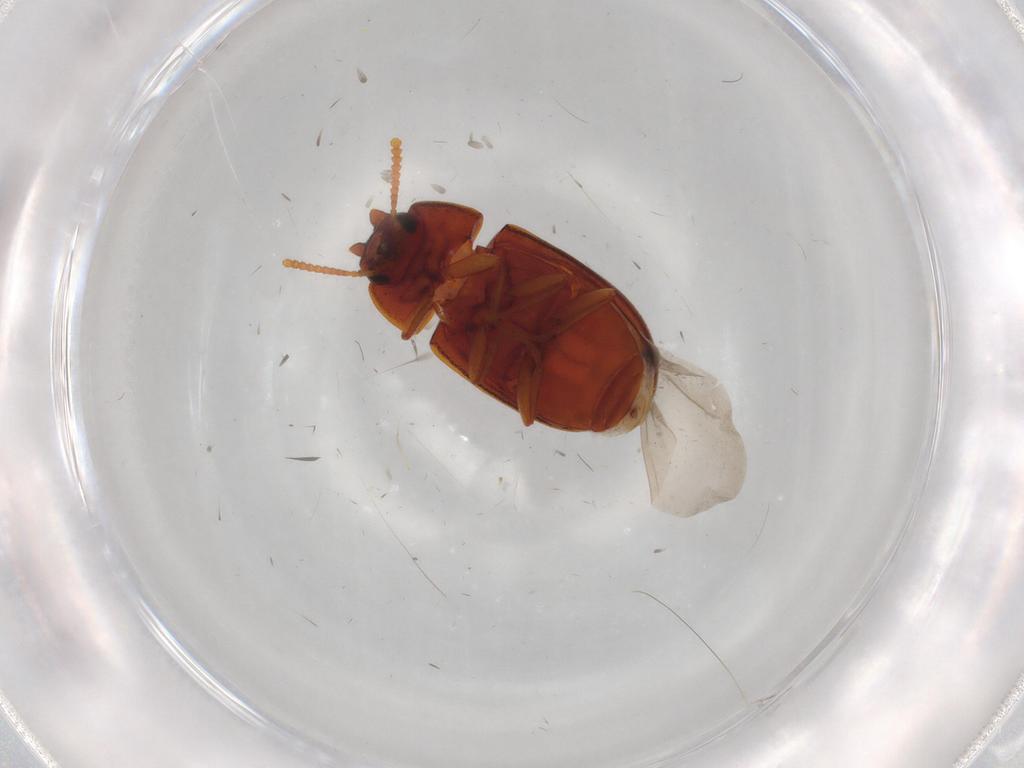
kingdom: Animalia
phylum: Arthropoda
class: Insecta
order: Coleoptera
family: Tenebrionidae
